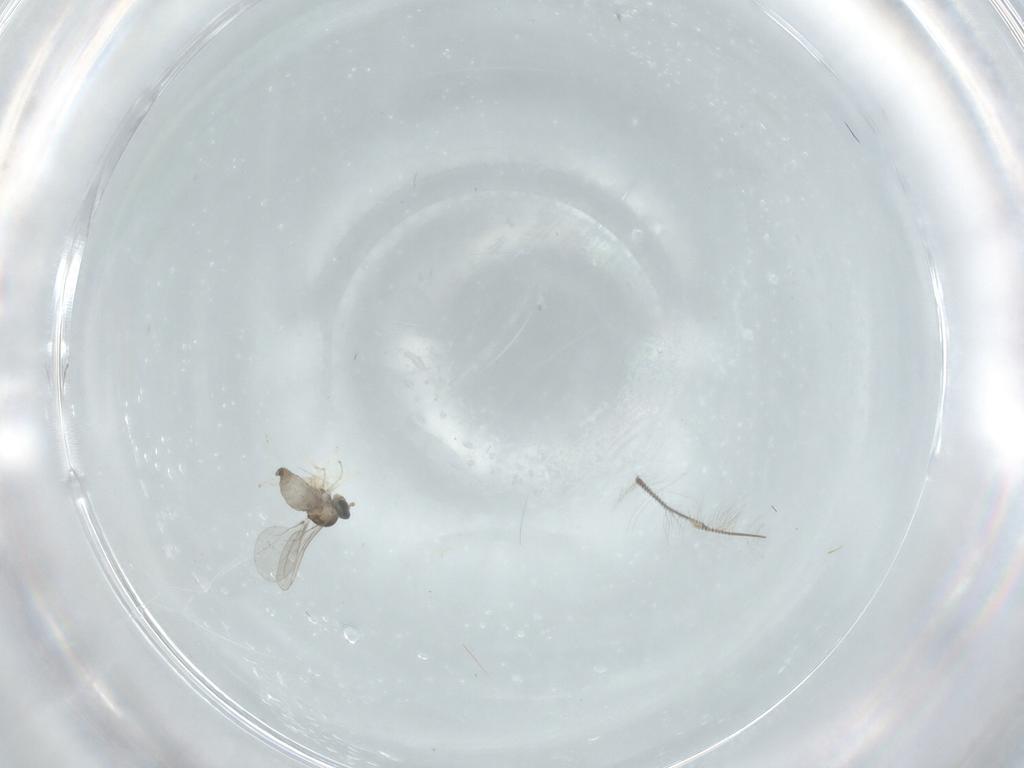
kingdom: Animalia
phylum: Arthropoda
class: Insecta
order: Diptera
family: Cecidomyiidae
